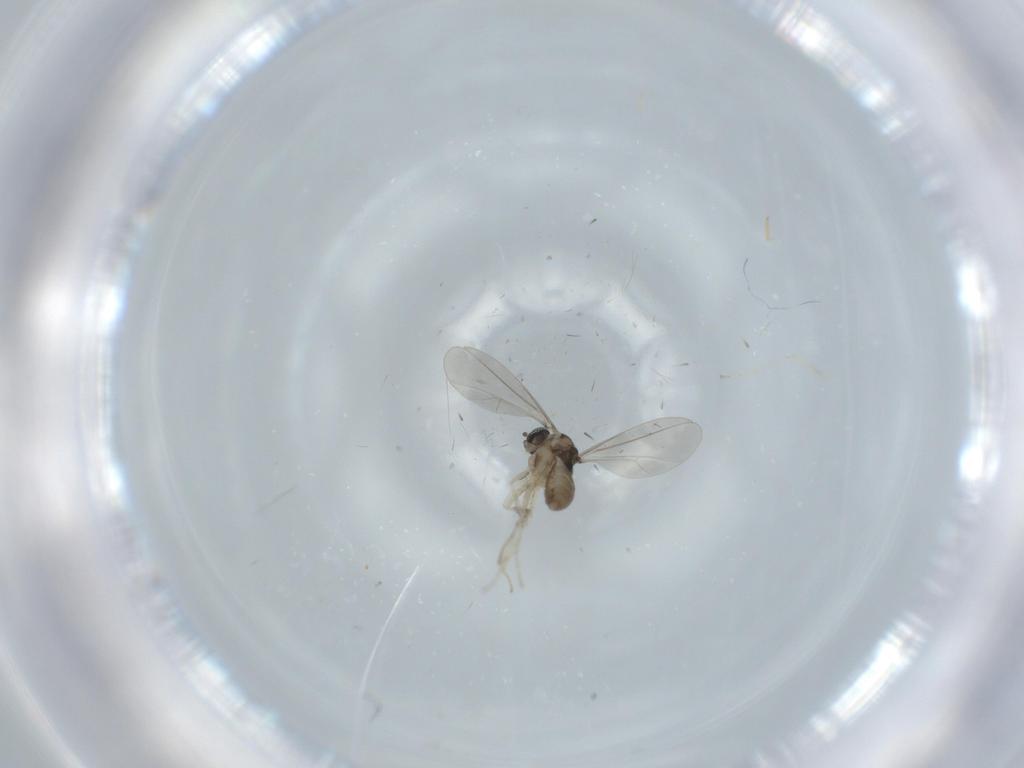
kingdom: Animalia
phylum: Arthropoda
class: Insecta
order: Diptera
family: Cecidomyiidae
